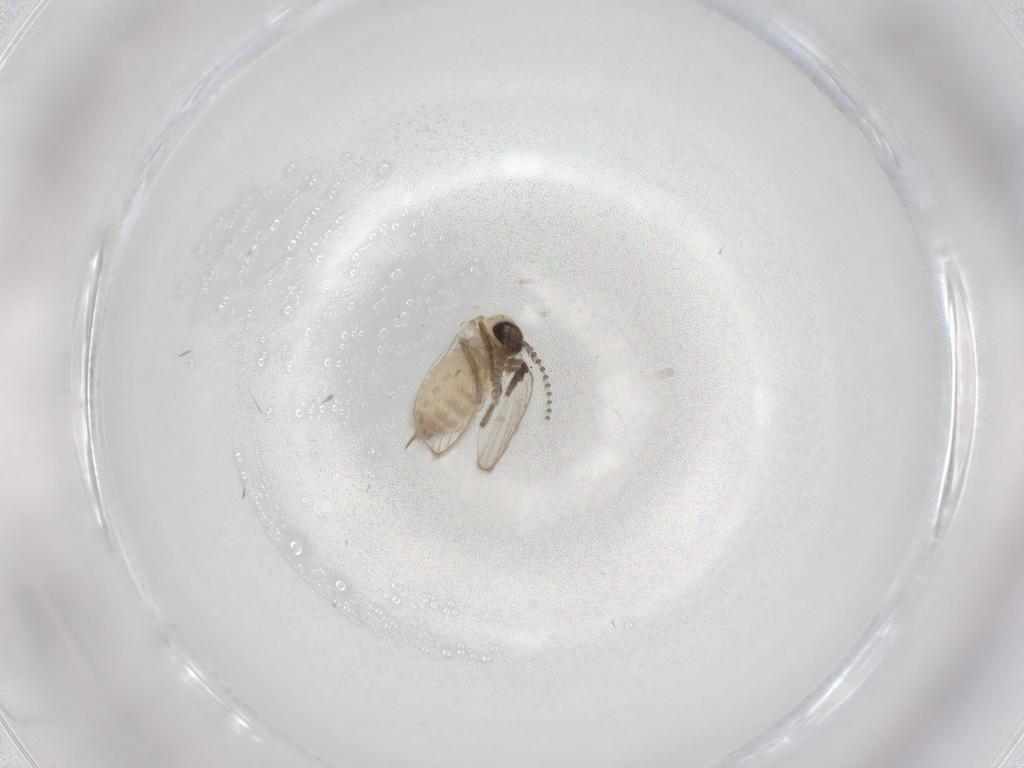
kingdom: Animalia
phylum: Arthropoda
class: Insecta
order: Diptera
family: Psychodidae
